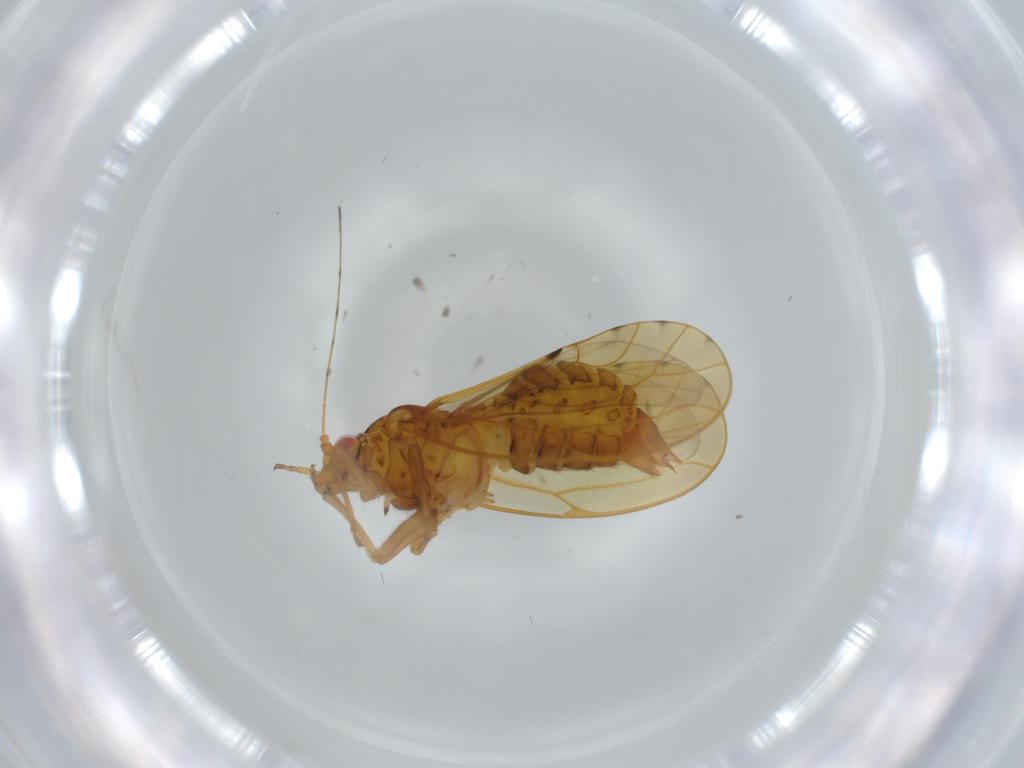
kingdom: Animalia
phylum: Arthropoda
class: Insecta
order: Hemiptera
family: Psylloidea_incertae_sedis
